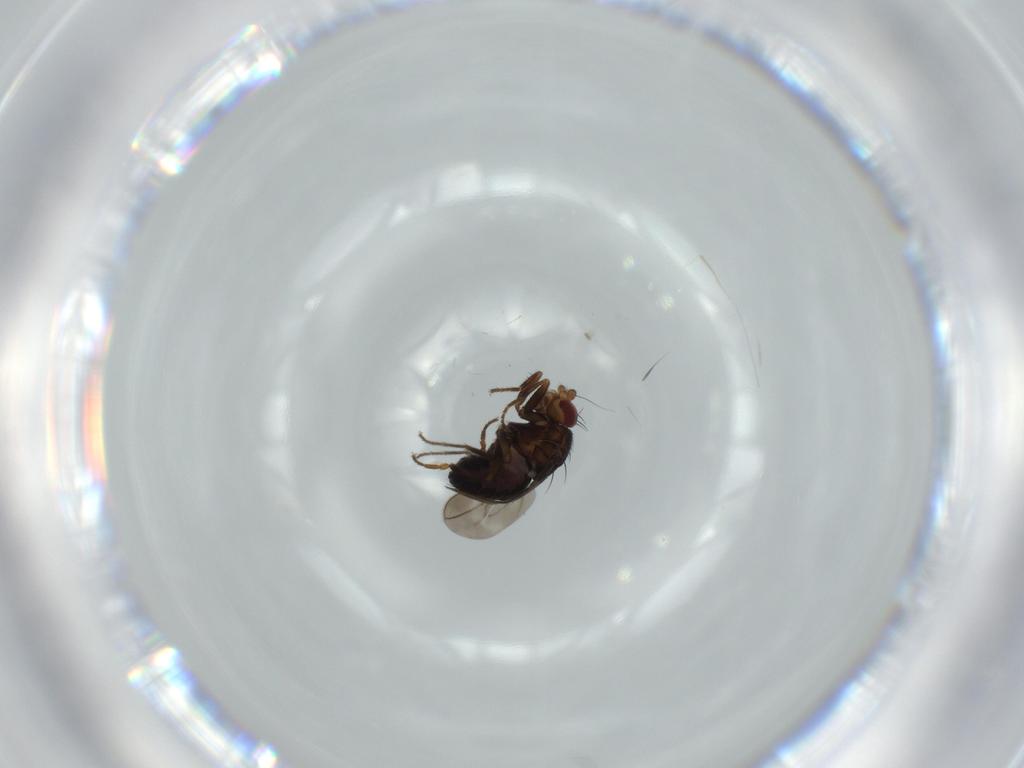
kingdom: Animalia
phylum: Arthropoda
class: Insecta
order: Diptera
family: Sphaeroceridae
